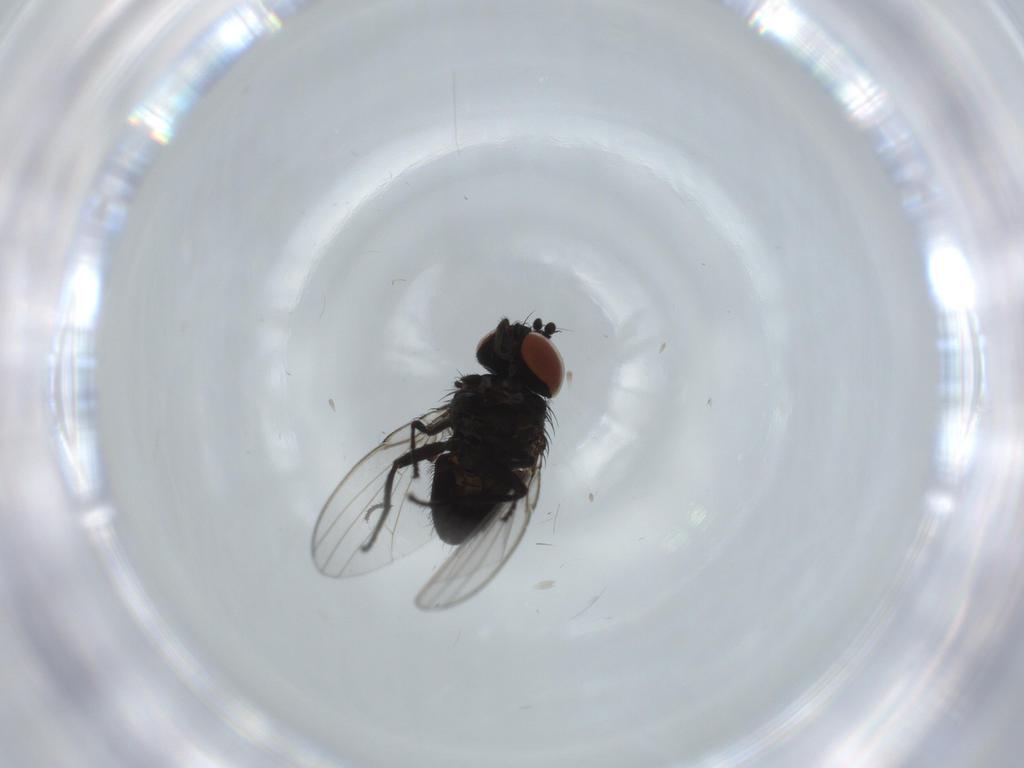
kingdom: Animalia
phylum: Arthropoda
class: Insecta
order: Diptera
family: Milichiidae
